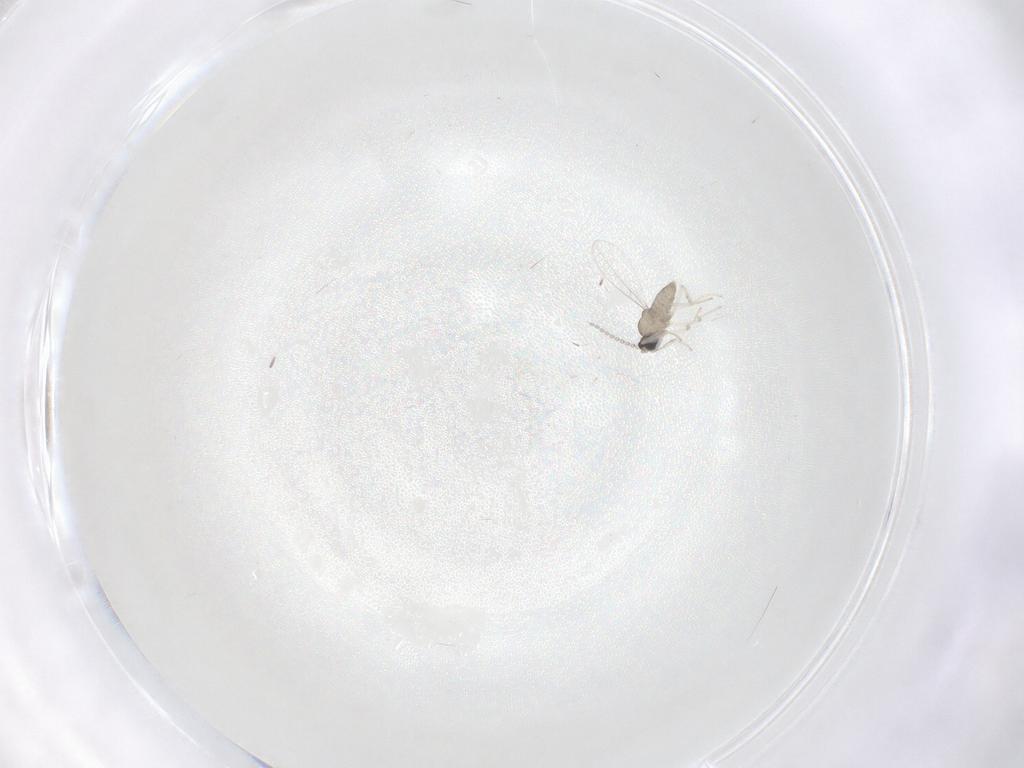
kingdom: Animalia
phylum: Arthropoda
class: Insecta
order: Diptera
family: Cecidomyiidae
